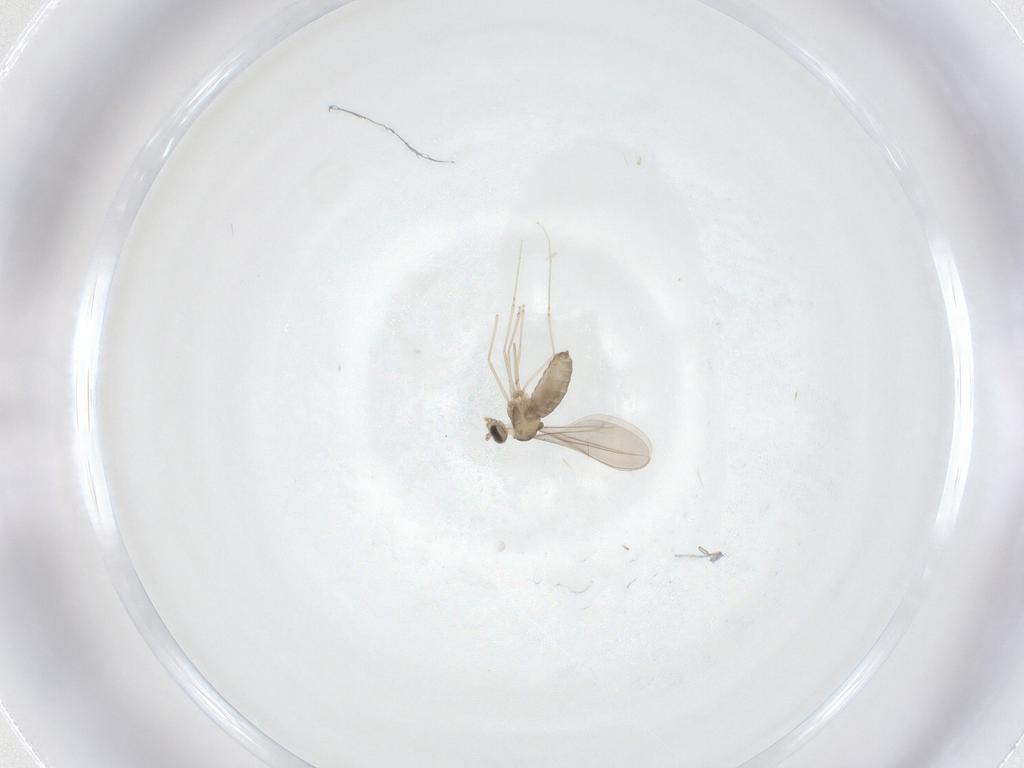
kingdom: Animalia
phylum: Arthropoda
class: Insecta
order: Diptera
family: Cecidomyiidae
